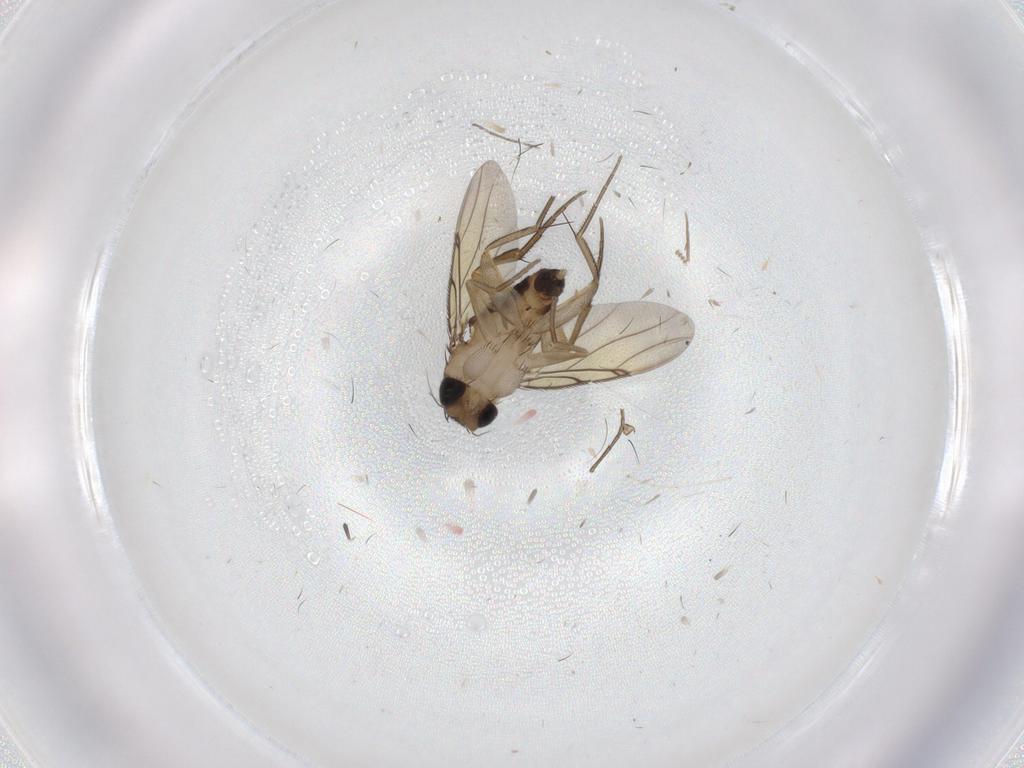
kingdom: Animalia
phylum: Arthropoda
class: Insecta
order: Diptera
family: Cecidomyiidae
